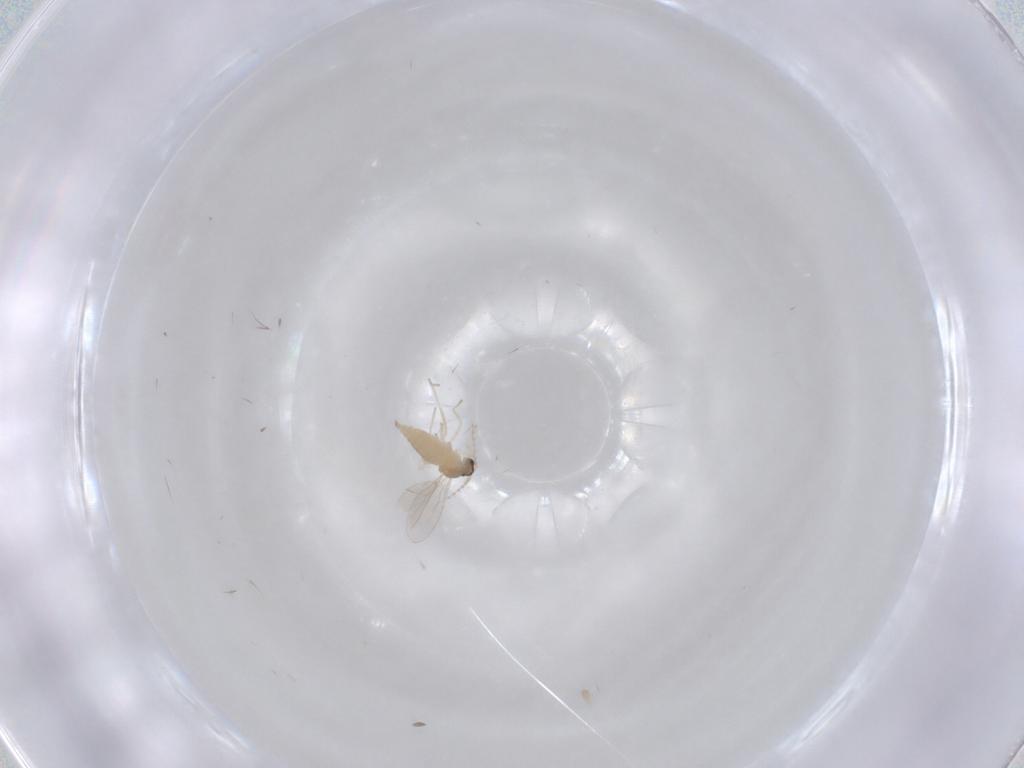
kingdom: Animalia
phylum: Arthropoda
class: Insecta
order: Diptera
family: Cecidomyiidae
